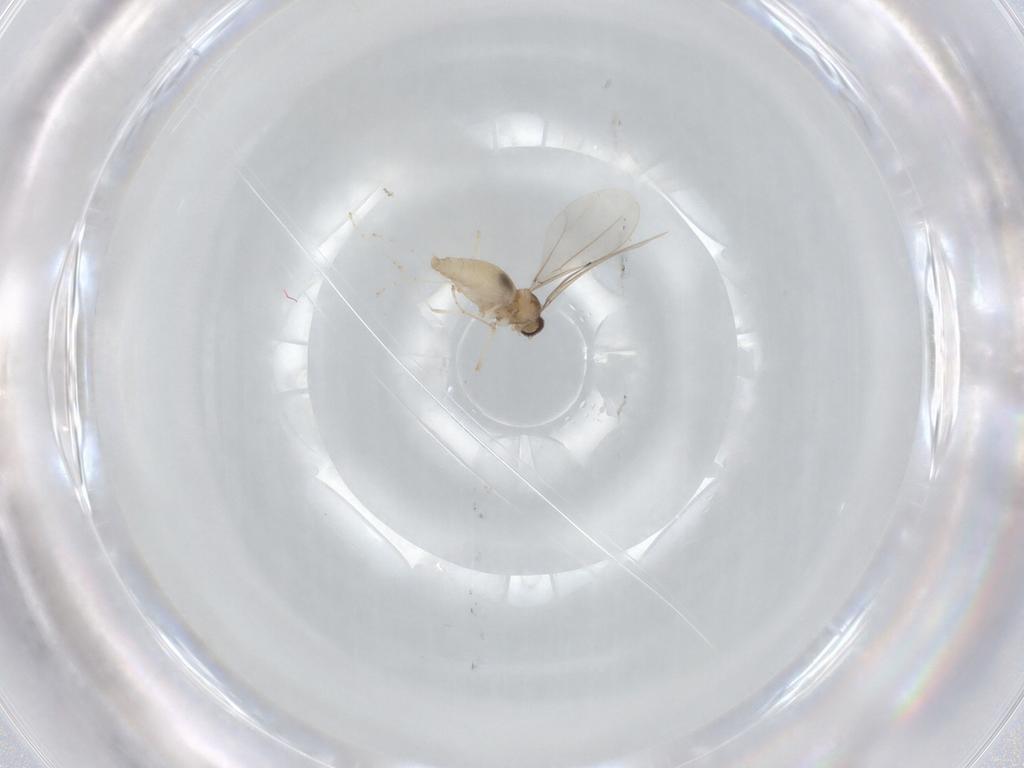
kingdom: Animalia
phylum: Arthropoda
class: Insecta
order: Diptera
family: Cecidomyiidae
